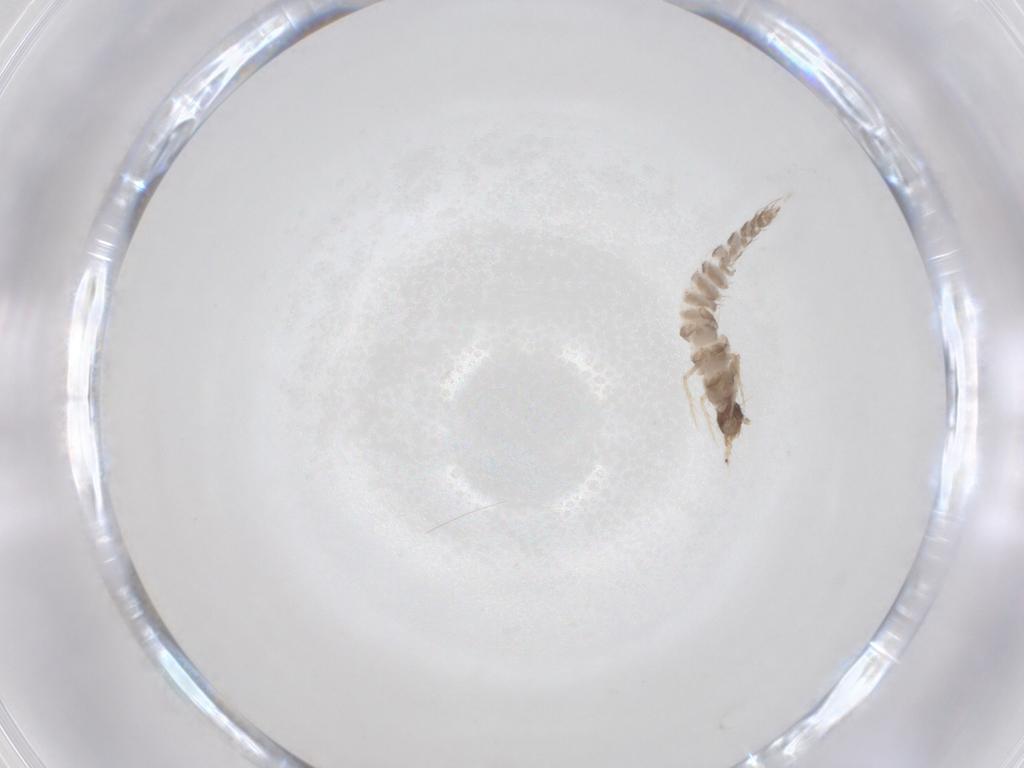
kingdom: Animalia
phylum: Arthropoda
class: Insecta
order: Coleoptera
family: Staphylinidae
